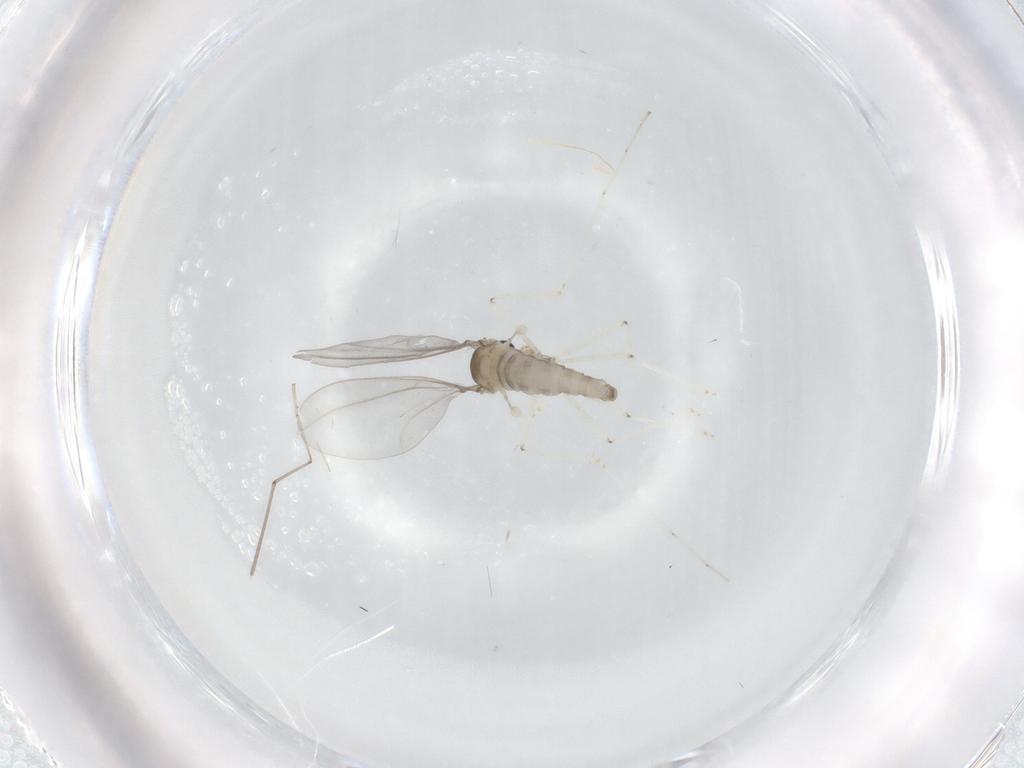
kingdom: Animalia
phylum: Arthropoda
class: Insecta
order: Diptera
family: Cecidomyiidae
